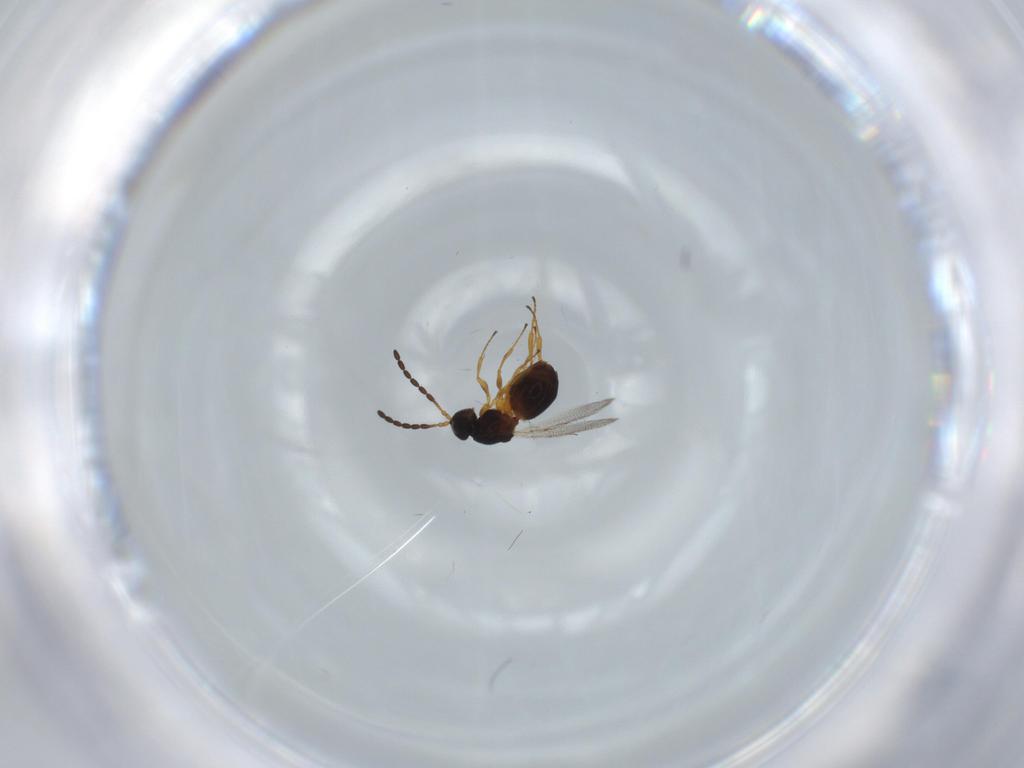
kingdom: Animalia
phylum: Arthropoda
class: Insecta
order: Hymenoptera
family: Figitidae
